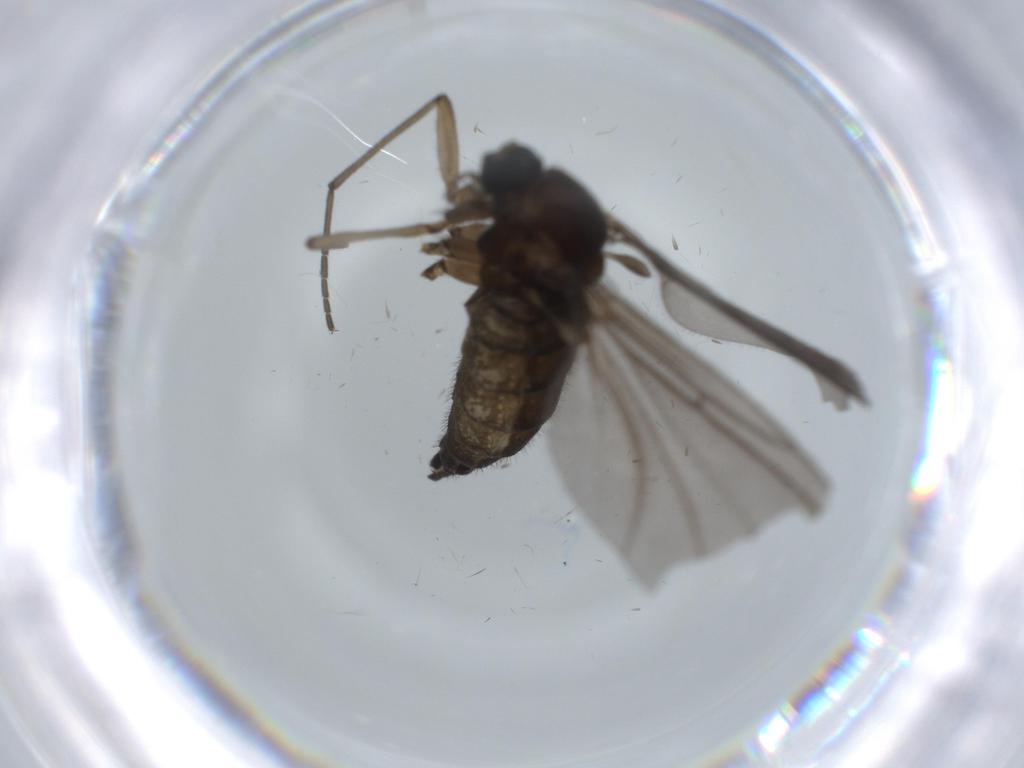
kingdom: Animalia
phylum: Arthropoda
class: Insecta
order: Diptera
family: Sciaridae
